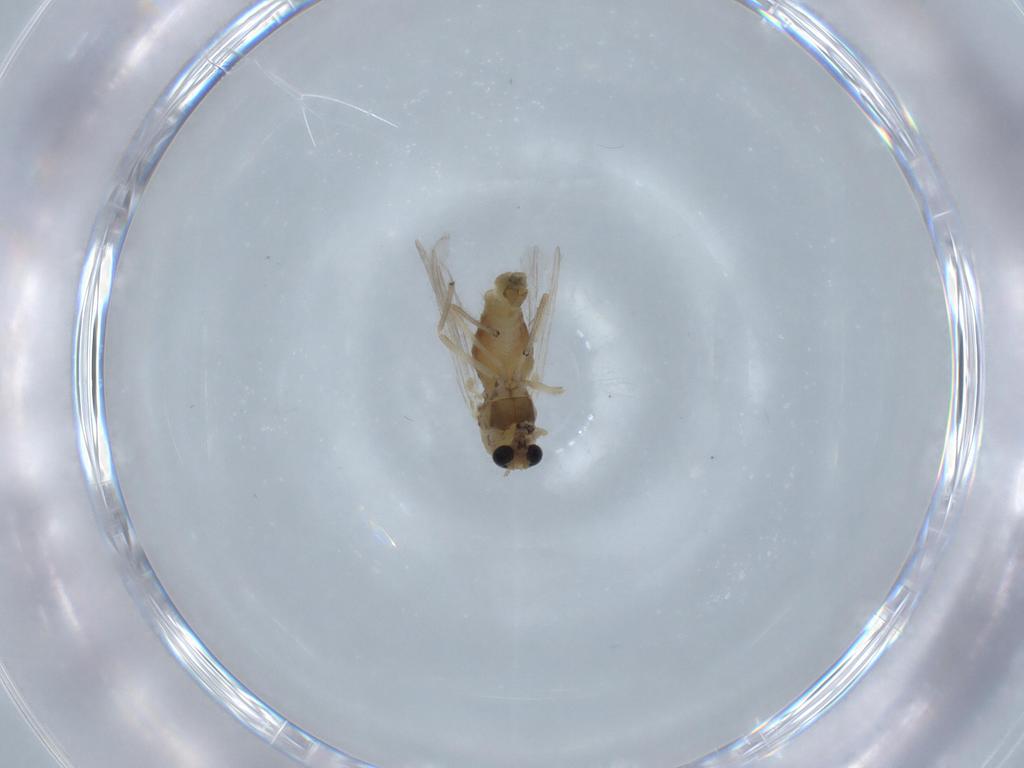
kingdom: Animalia
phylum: Arthropoda
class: Insecta
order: Diptera
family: Chironomidae
